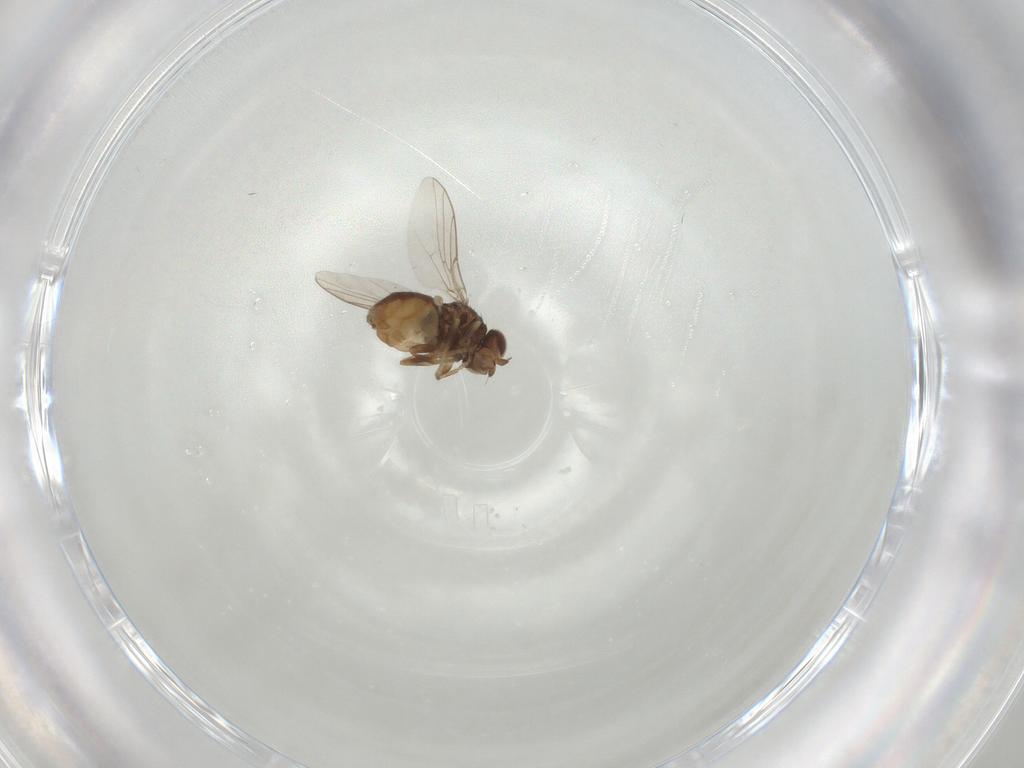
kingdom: Animalia
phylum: Arthropoda
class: Insecta
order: Diptera
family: Chloropidae
